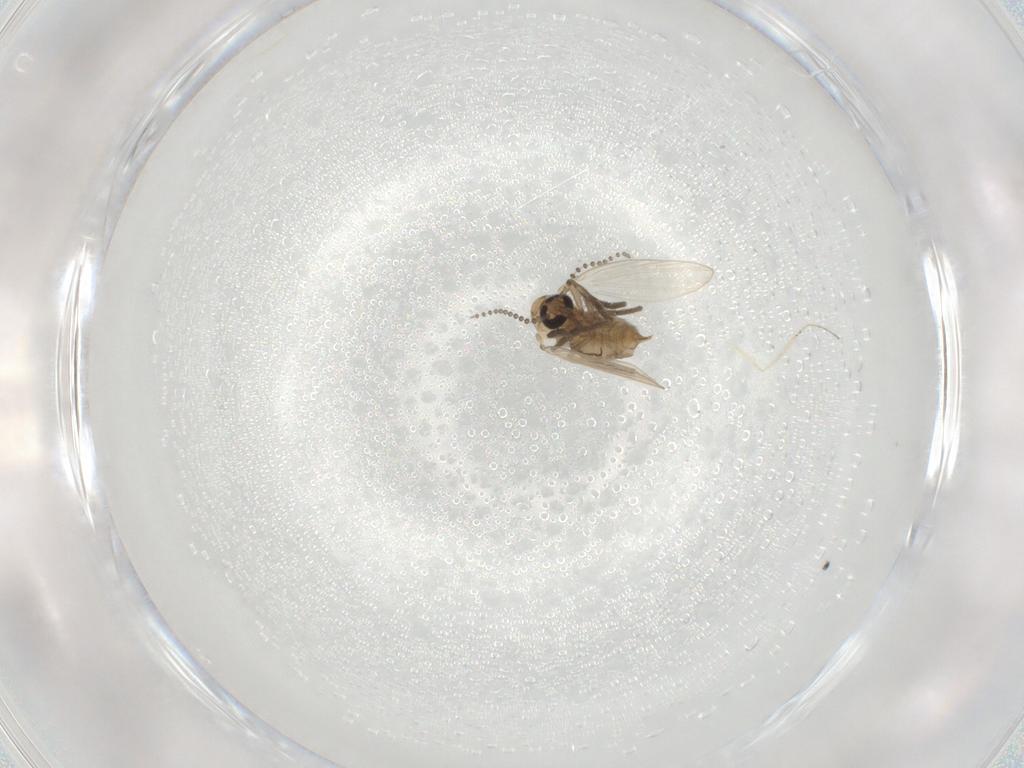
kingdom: Animalia
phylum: Arthropoda
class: Insecta
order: Diptera
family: Psychodidae
